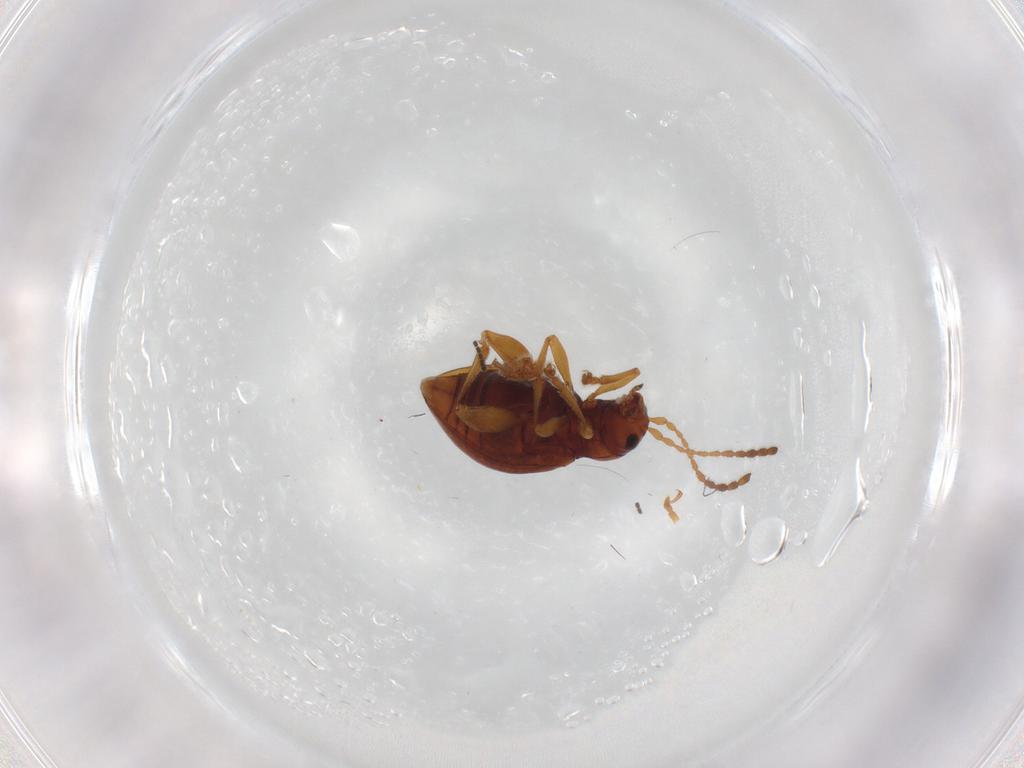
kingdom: Animalia
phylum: Arthropoda
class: Insecta
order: Coleoptera
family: Chrysomelidae
